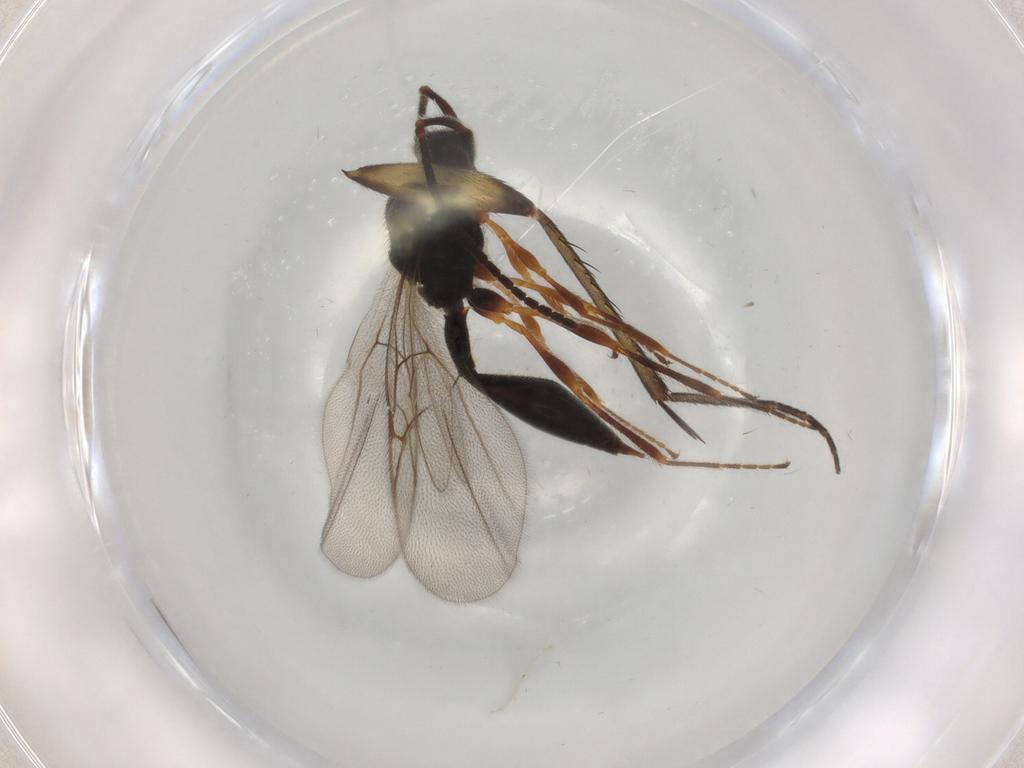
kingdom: Animalia
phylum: Arthropoda
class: Insecta
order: Hymenoptera
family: Diapriidae
